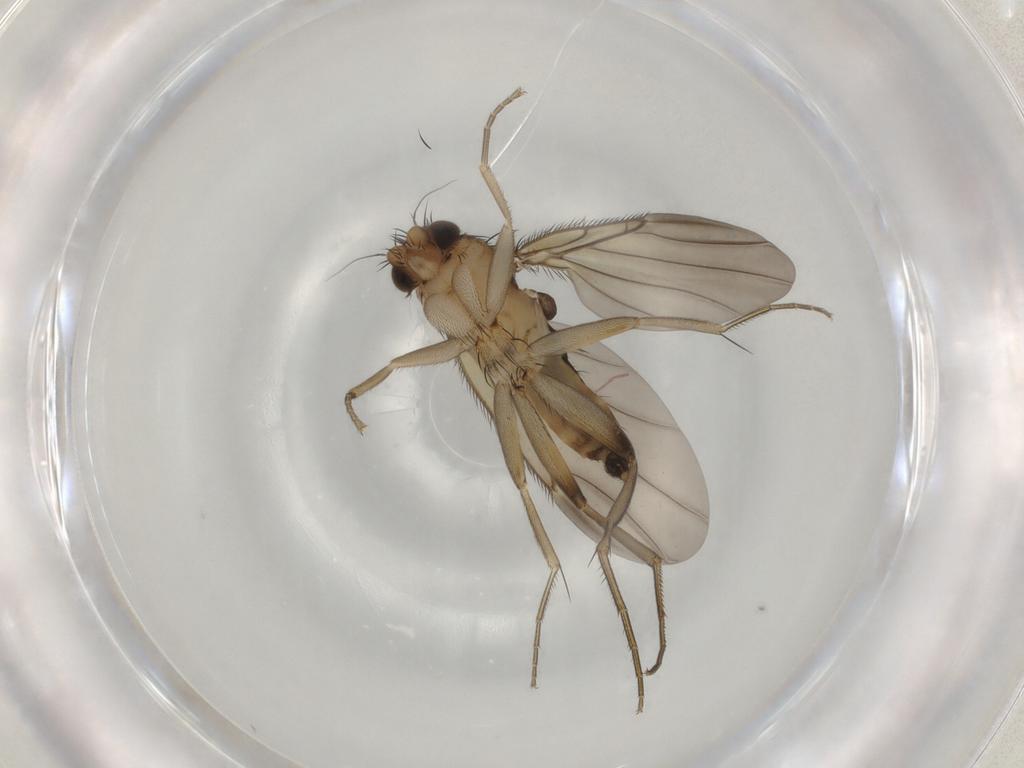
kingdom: Animalia
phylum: Arthropoda
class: Insecta
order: Diptera
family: Phoridae
